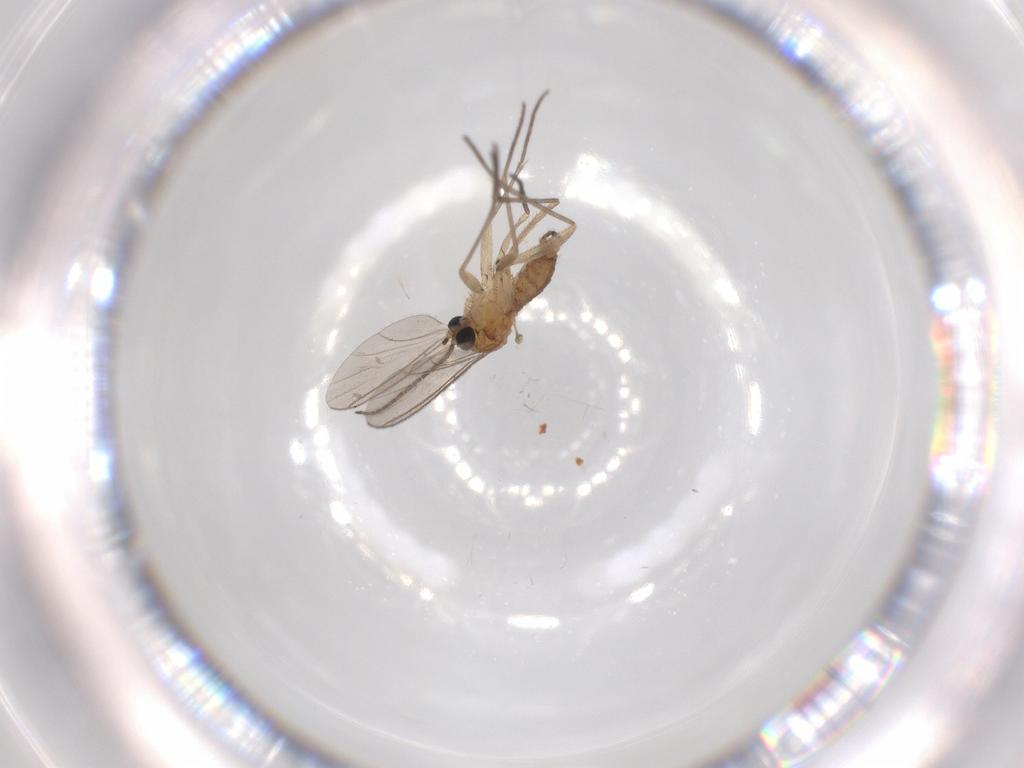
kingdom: Animalia
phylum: Arthropoda
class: Insecta
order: Diptera
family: Sciaridae
